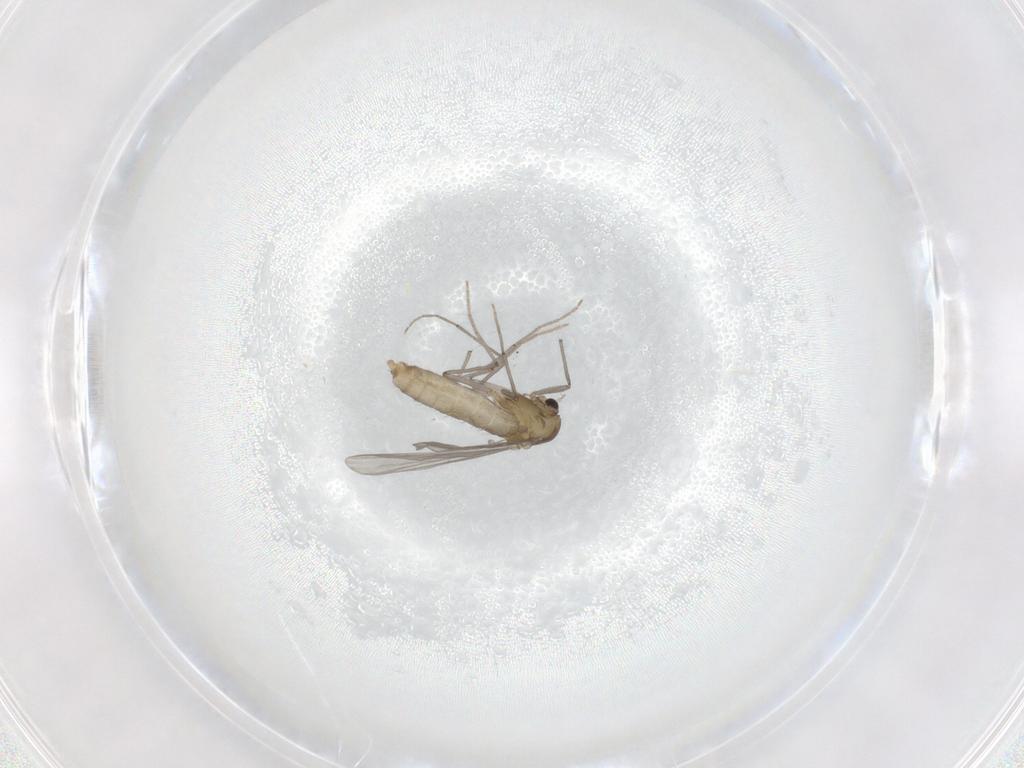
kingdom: Animalia
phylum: Arthropoda
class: Insecta
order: Diptera
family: Chironomidae
